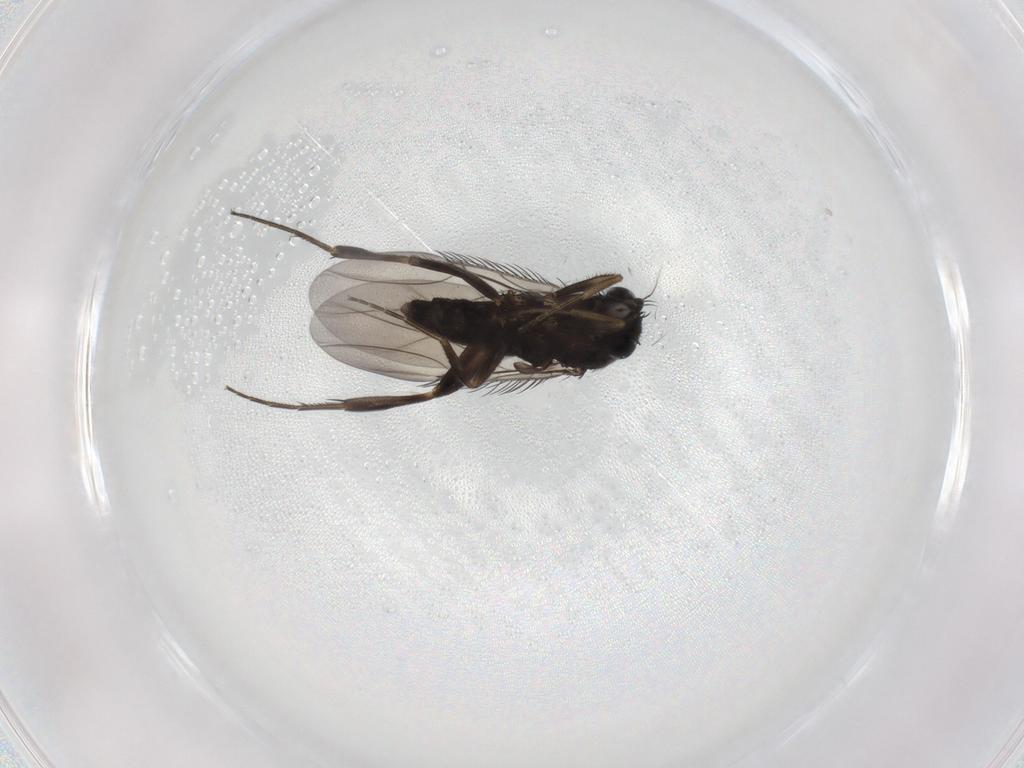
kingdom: Animalia
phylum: Arthropoda
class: Insecta
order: Diptera
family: Phoridae
